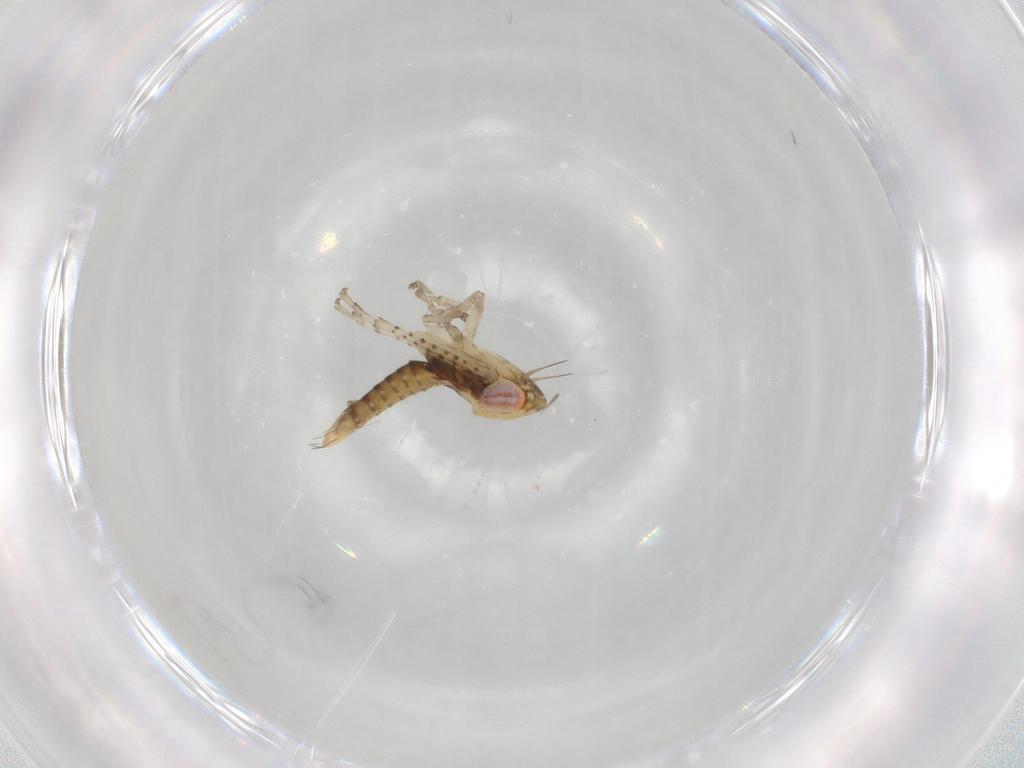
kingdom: Animalia
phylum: Arthropoda
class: Insecta
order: Hemiptera
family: Cicadellidae
